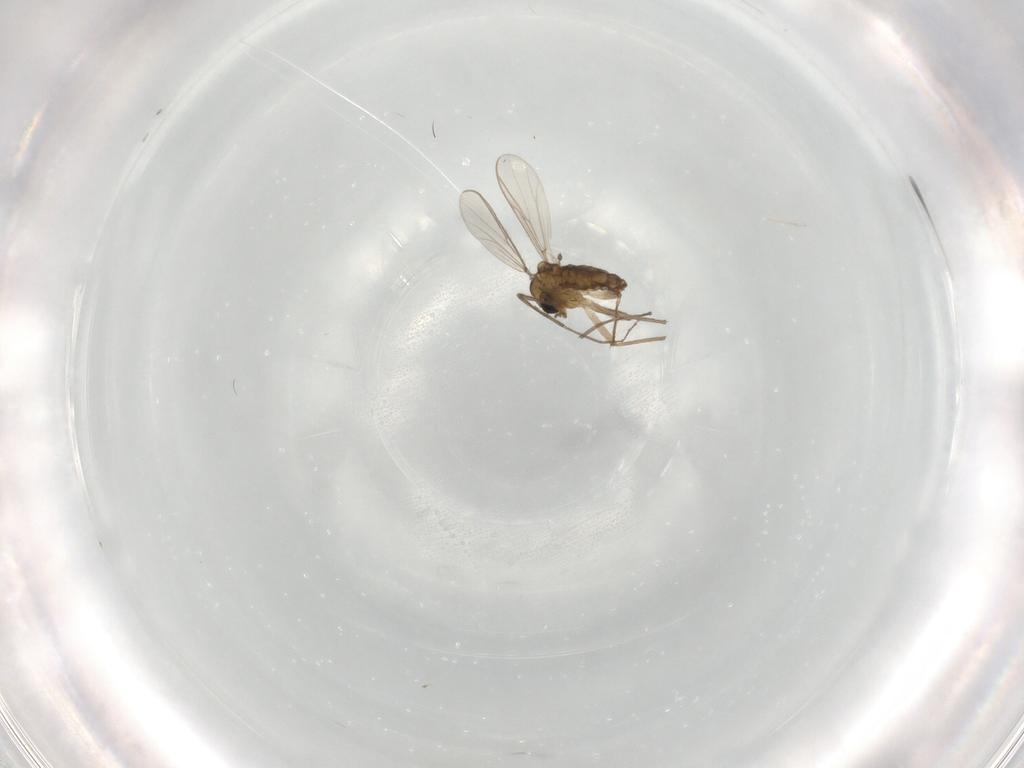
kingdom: Animalia
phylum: Arthropoda
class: Insecta
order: Diptera
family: Chironomidae
